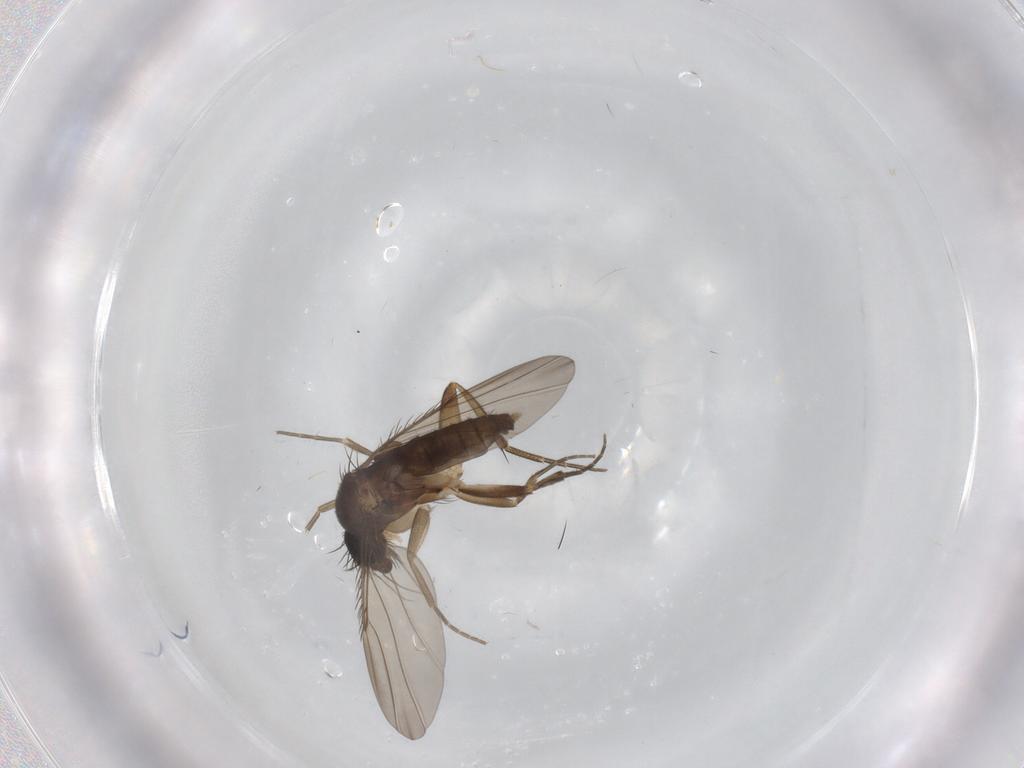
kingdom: Animalia
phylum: Arthropoda
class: Insecta
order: Diptera
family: Phoridae
